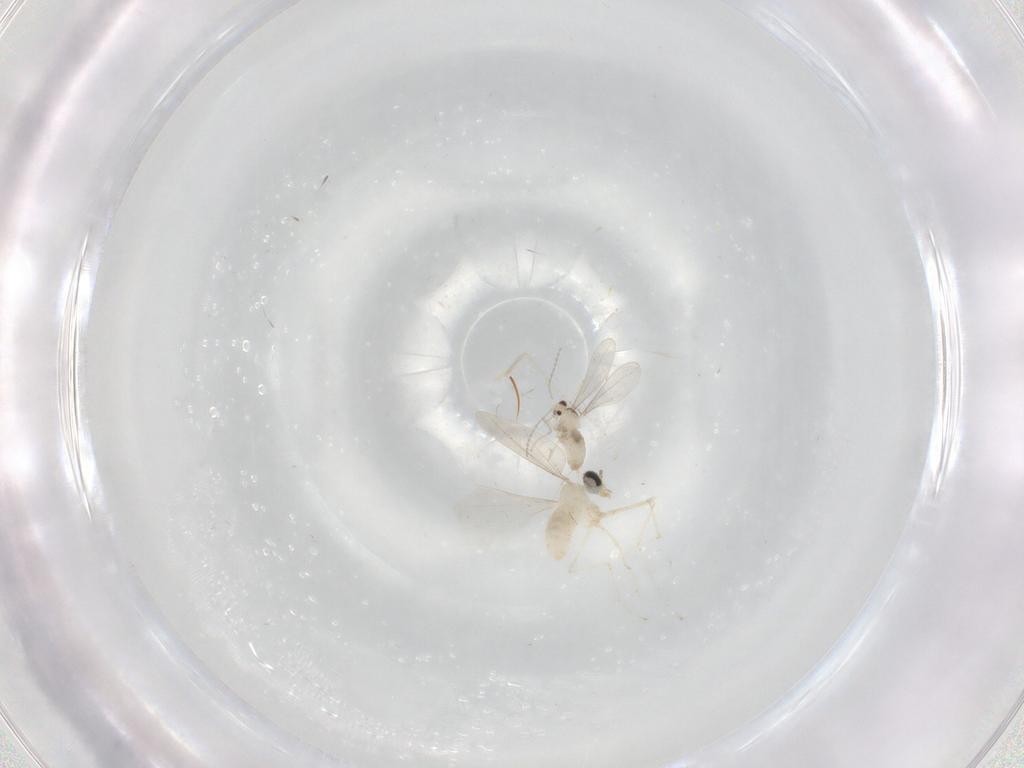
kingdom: Animalia
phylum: Arthropoda
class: Insecta
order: Diptera
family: Cecidomyiidae
